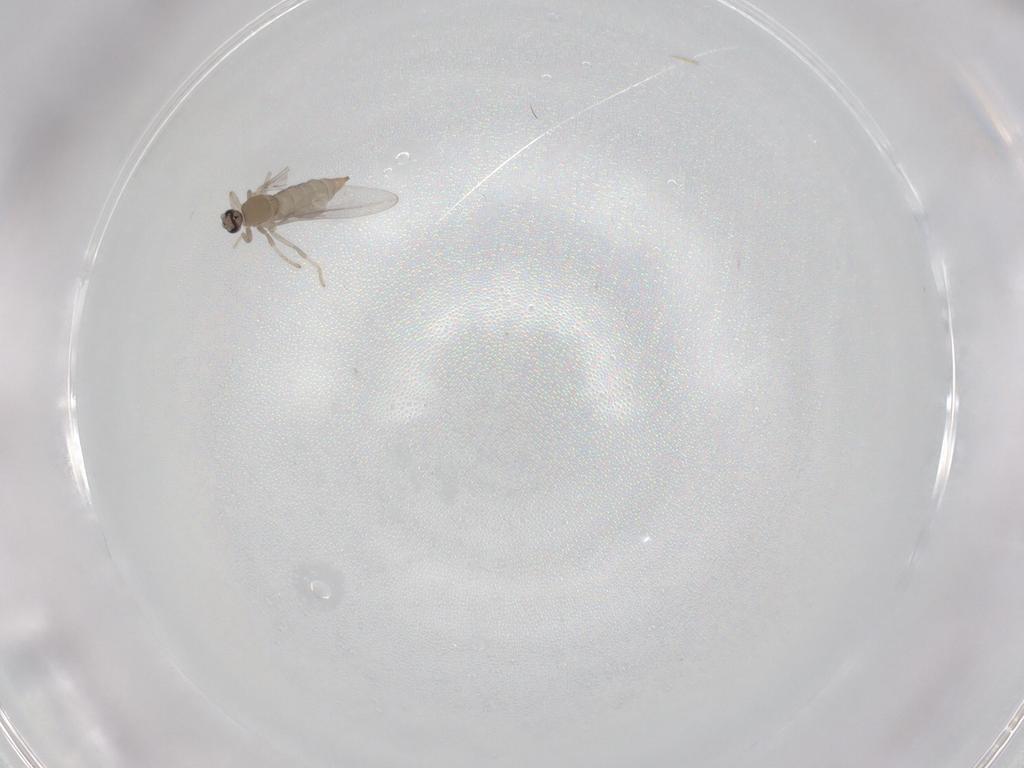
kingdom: Animalia
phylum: Arthropoda
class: Insecta
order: Diptera
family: Cecidomyiidae
